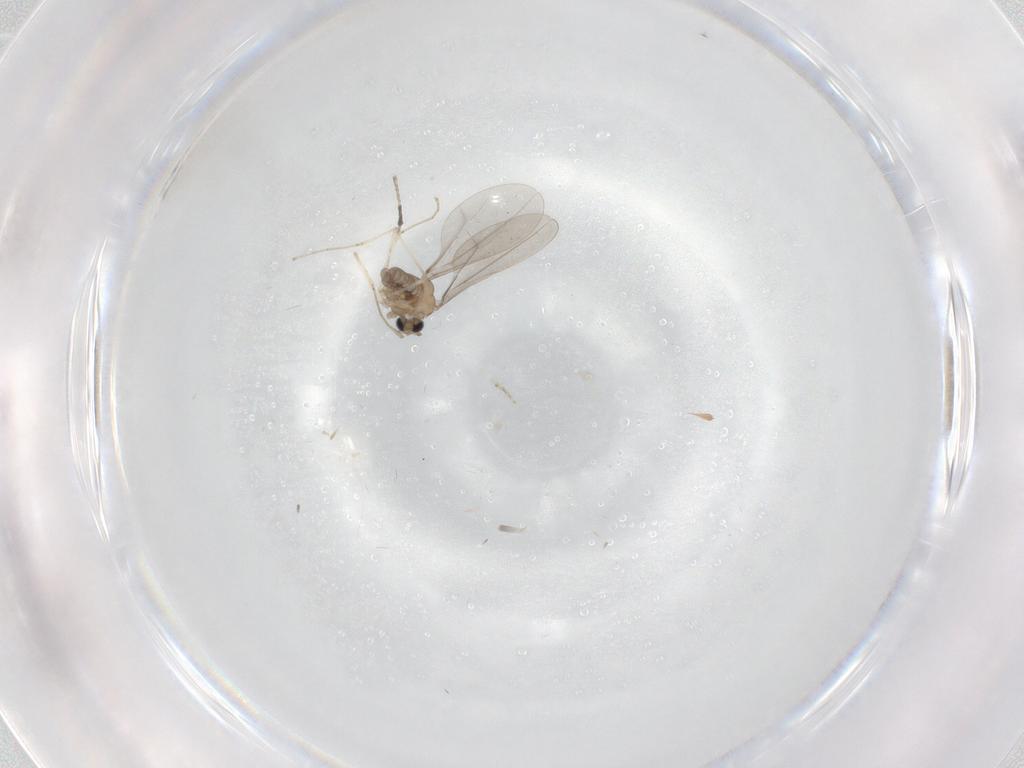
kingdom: Animalia
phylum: Arthropoda
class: Insecta
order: Diptera
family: Cecidomyiidae
